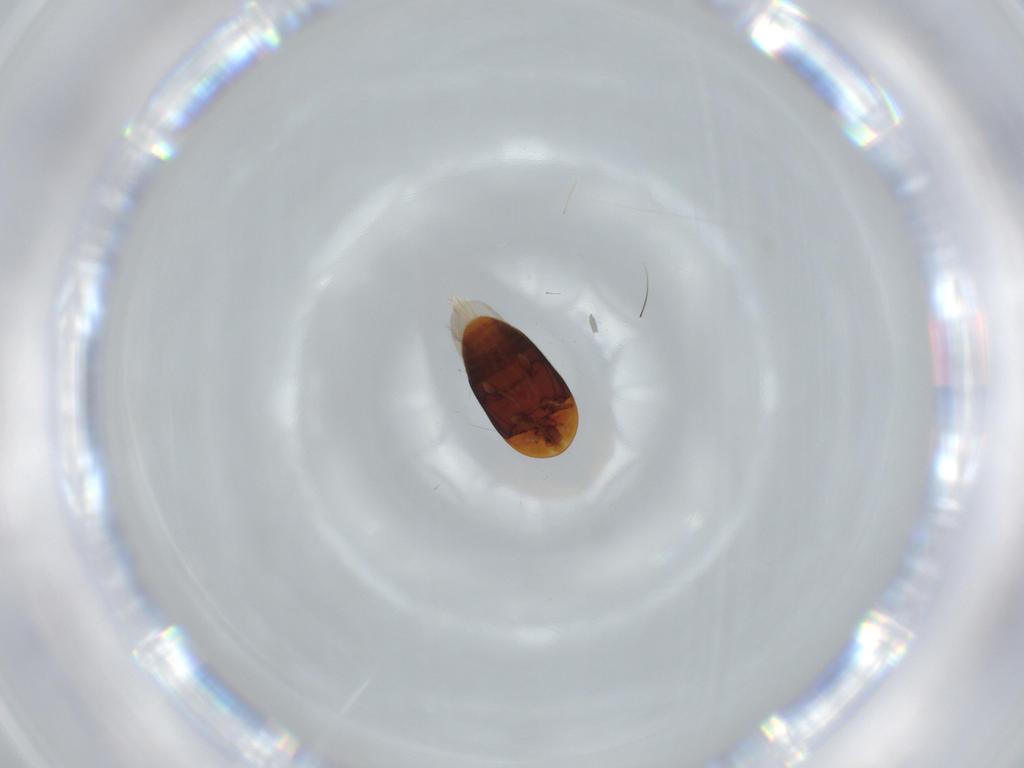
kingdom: Animalia
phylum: Arthropoda
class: Insecta
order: Coleoptera
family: Corylophidae
